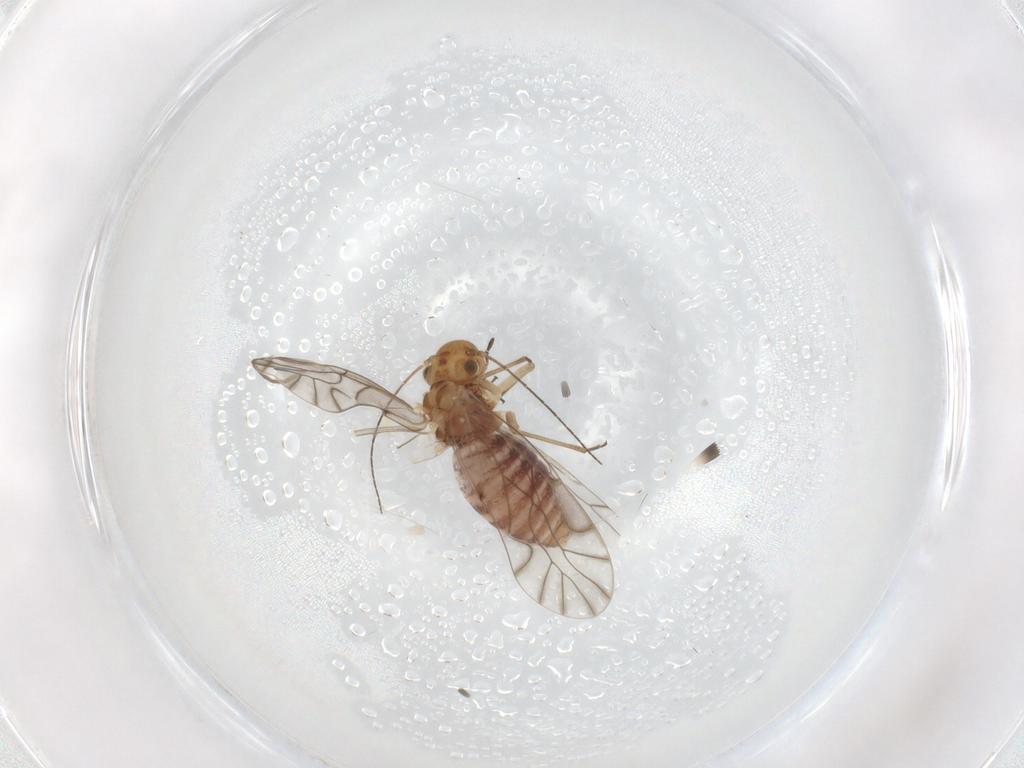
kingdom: Animalia
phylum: Arthropoda
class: Insecta
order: Psocodea
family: Lachesillidae
